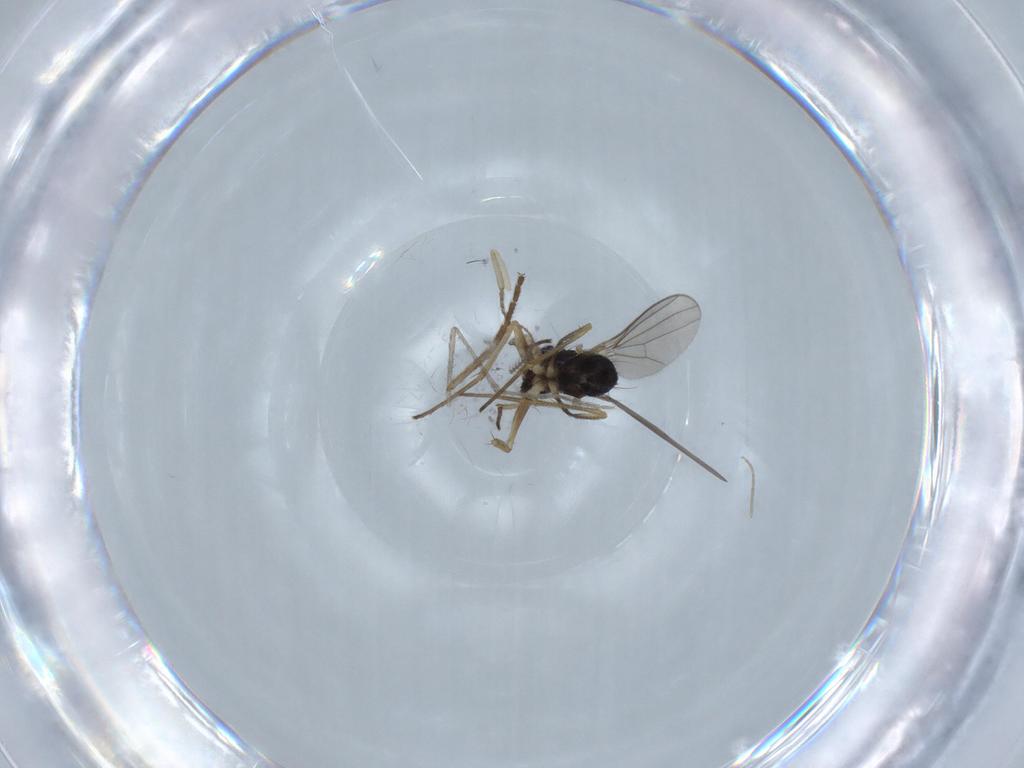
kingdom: Animalia
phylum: Arthropoda
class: Insecta
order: Diptera
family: Dolichopodidae
